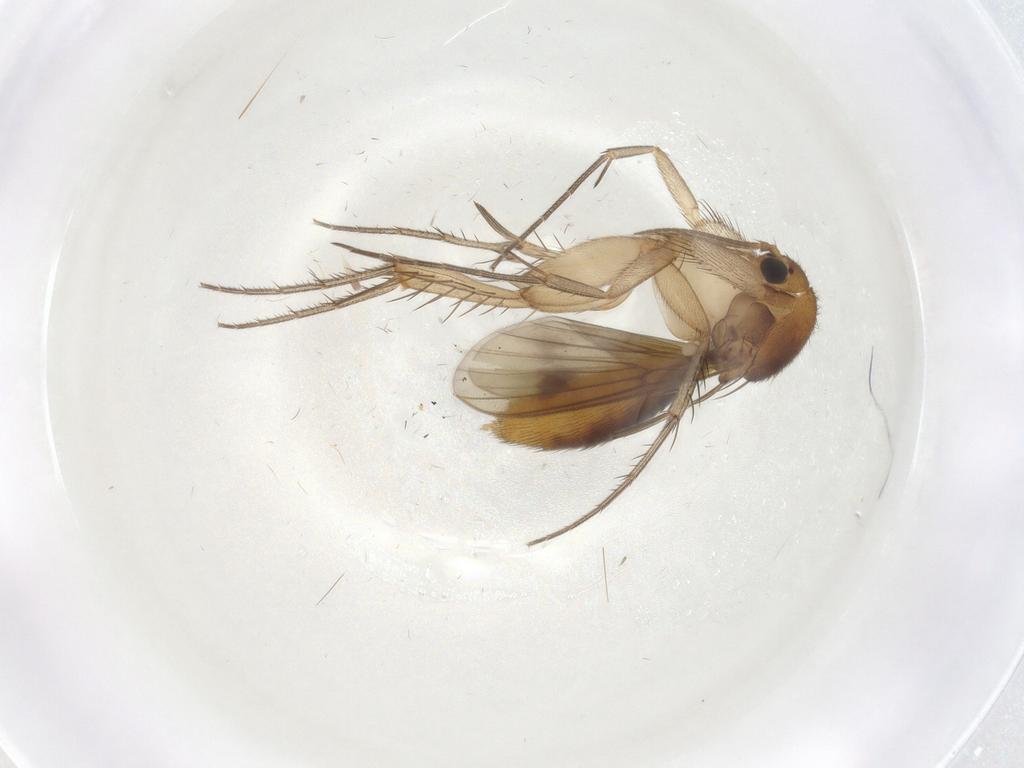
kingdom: Animalia
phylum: Arthropoda
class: Insecta
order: Diptera
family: Mycetophilidae
